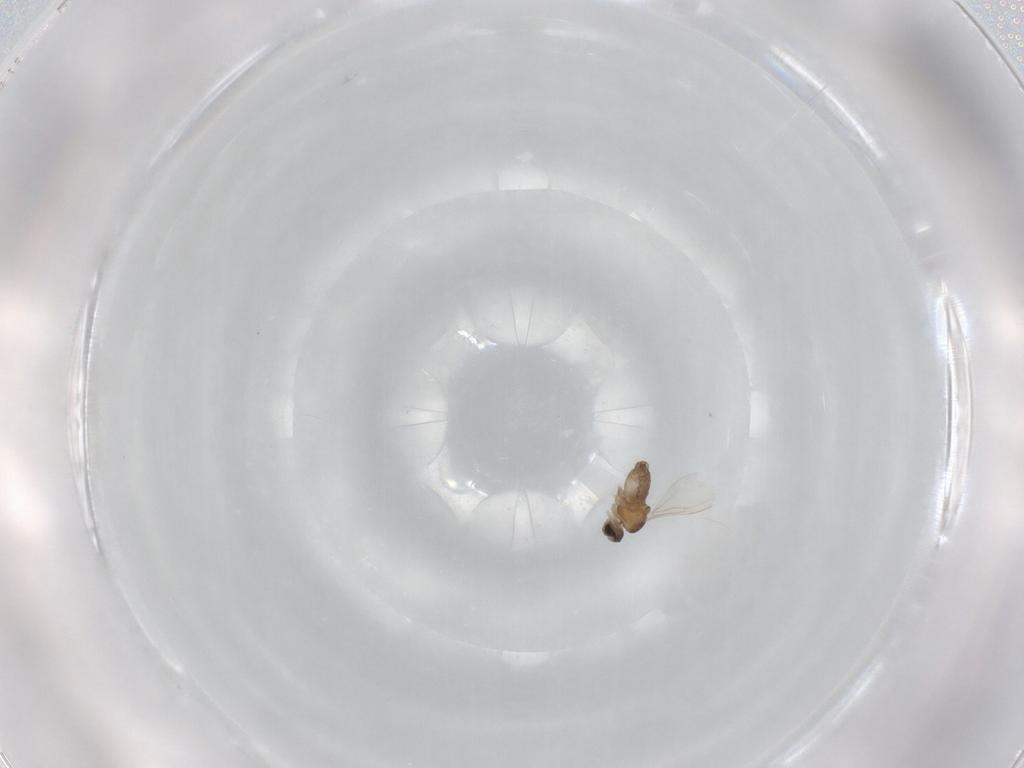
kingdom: Animalia
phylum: Arthropoda
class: Insecta
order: Diptera
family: Cecidomyiidae
